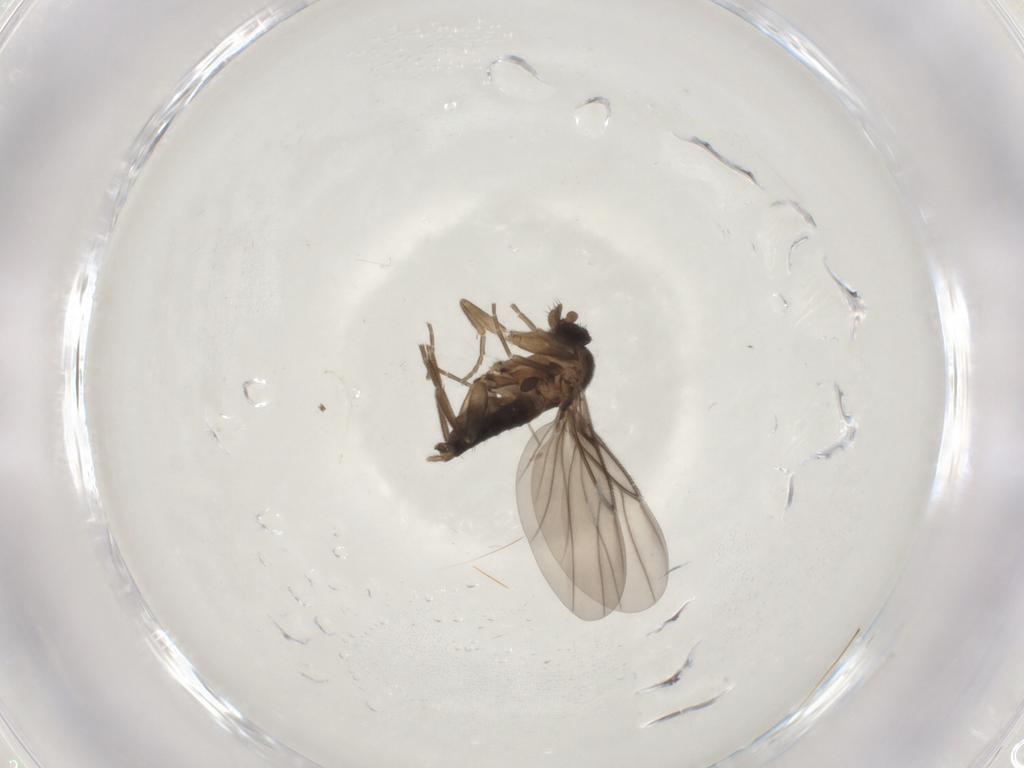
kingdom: Animalia
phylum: Arthropoda
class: Insecta
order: Diptera
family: Phoridae
